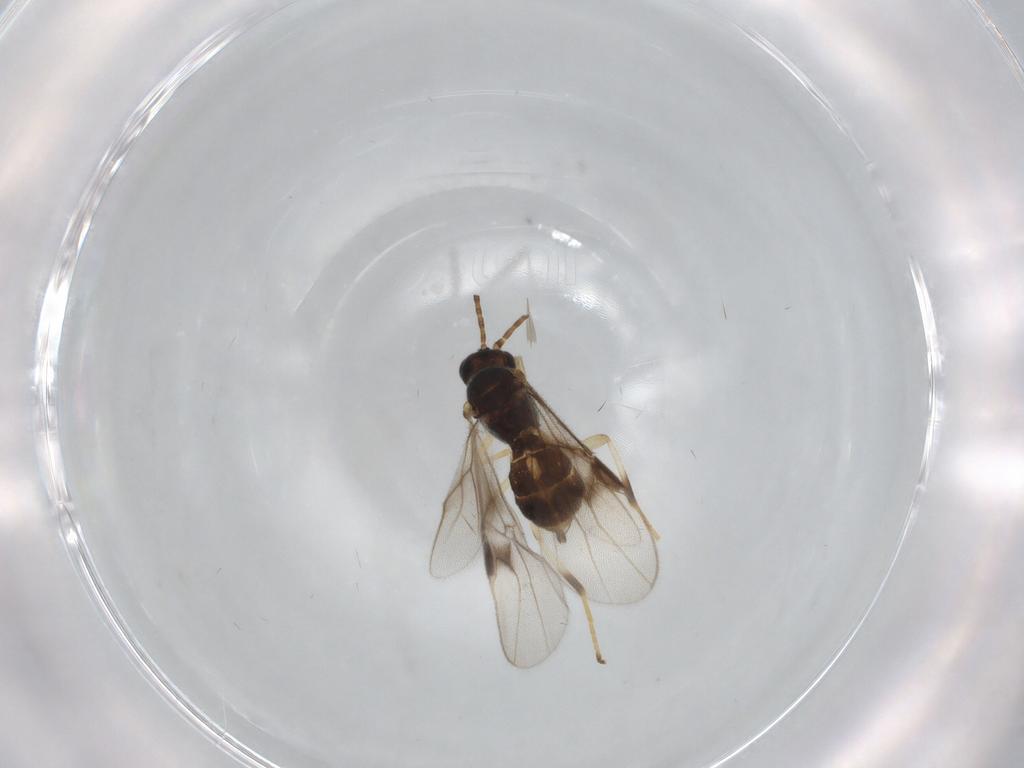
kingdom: Animalia
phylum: Arthropoda
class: Insecta
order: Hymenoptera
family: Braconidae
